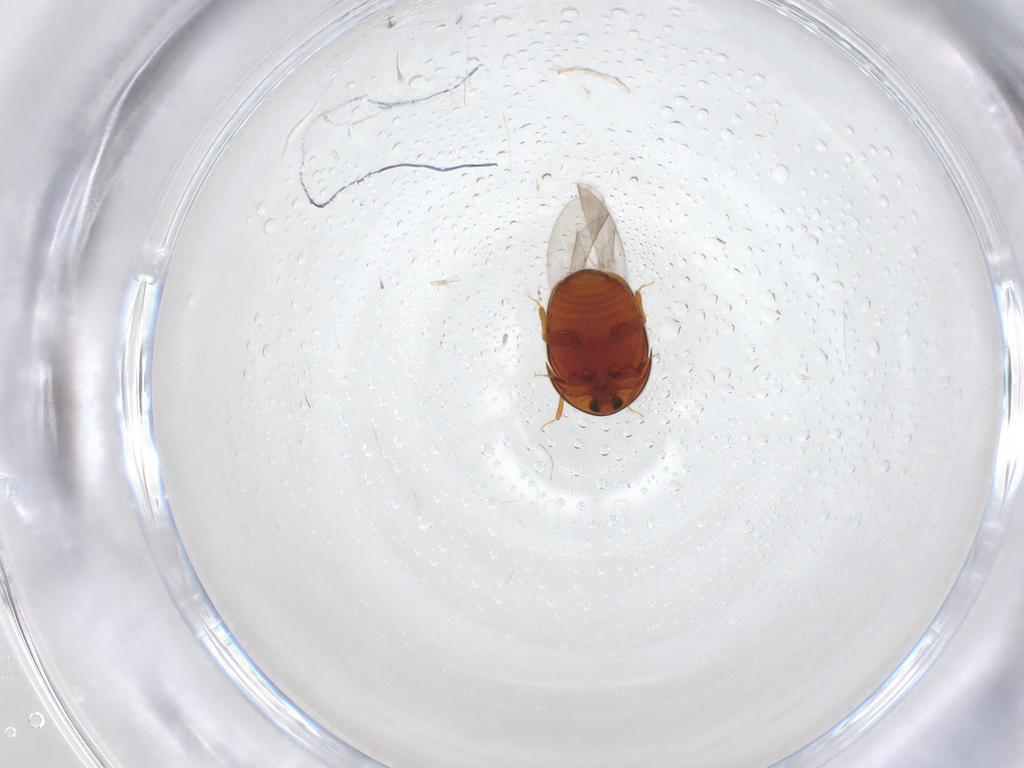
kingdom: Animalia
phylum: Arthropoda
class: Insecta
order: Coleoptera
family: Corylophidae
